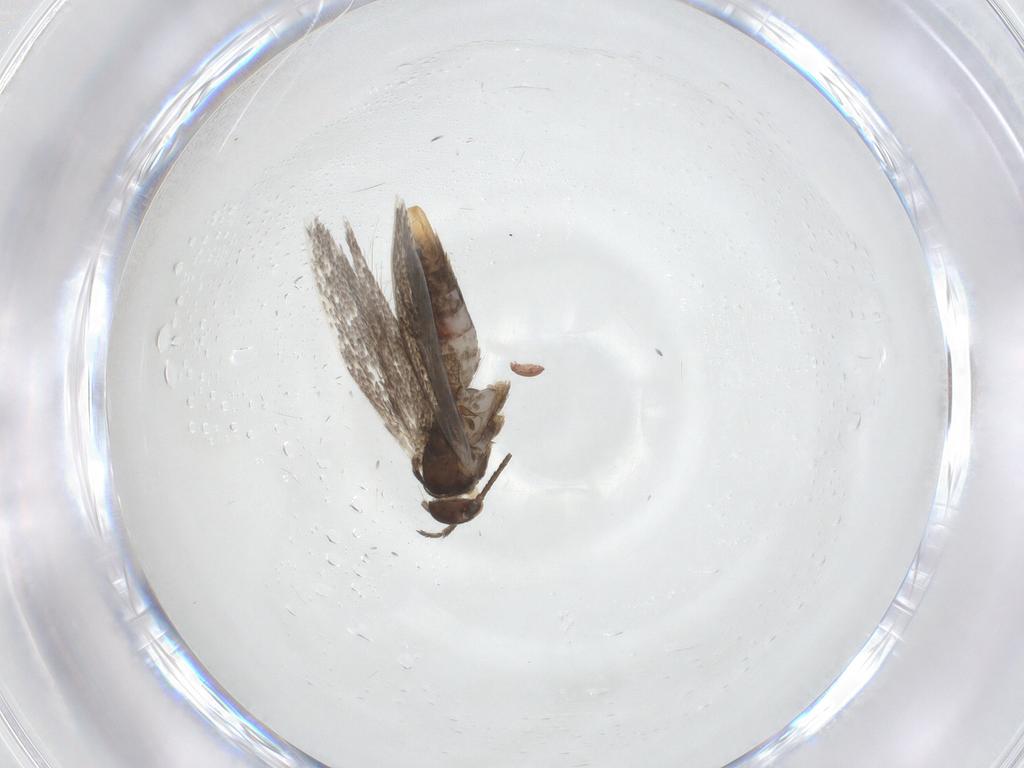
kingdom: Animalia
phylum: Arthropoda
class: Insecta
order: Lepidoptera
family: Elachistidae
